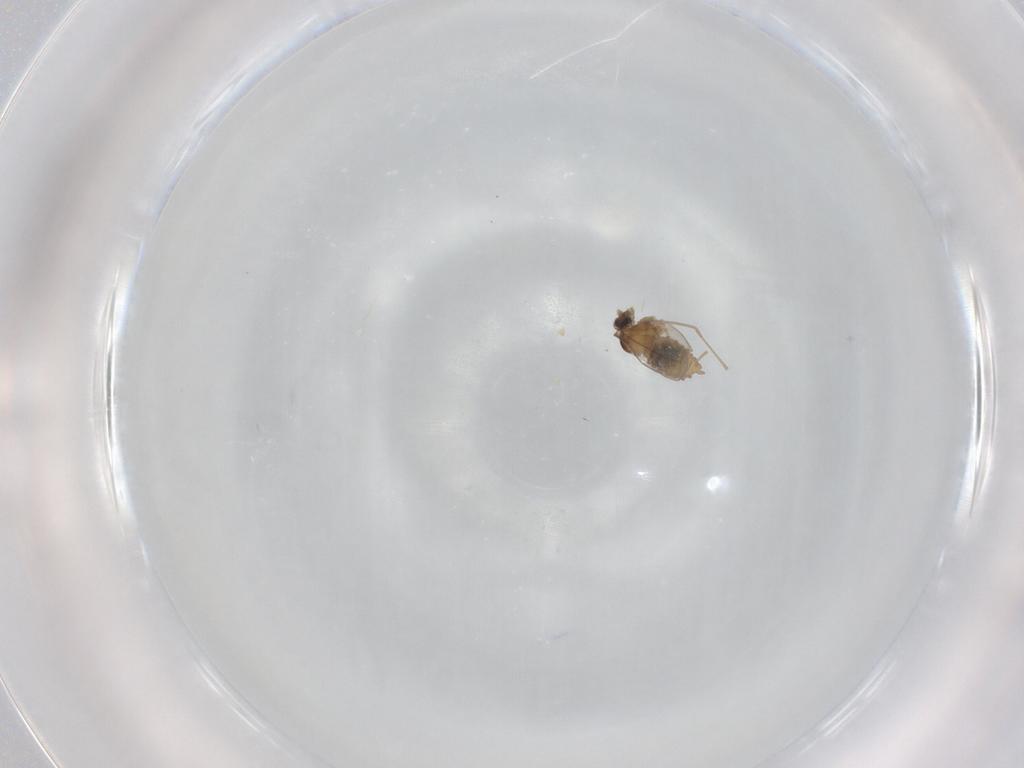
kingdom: Animalia
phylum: Arthropoda
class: Insecta
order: Diptera
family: Cecidomyiidae
